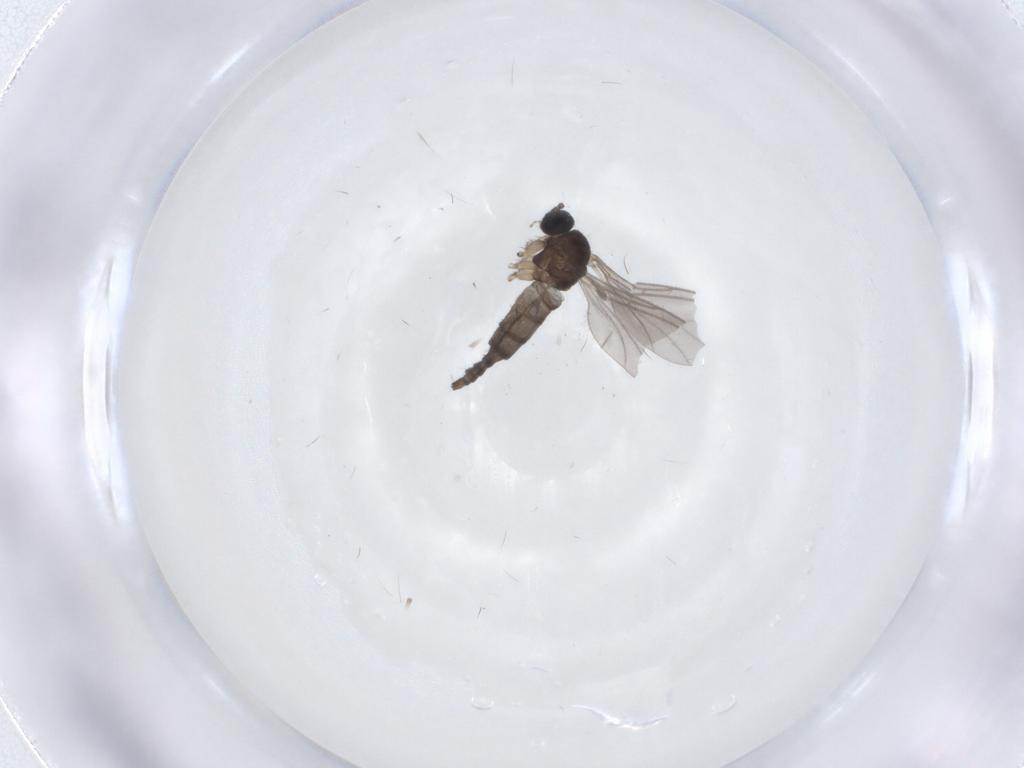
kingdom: Animalia
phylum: Arthropoda
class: Insecta
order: Diptera
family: Sciaridae
